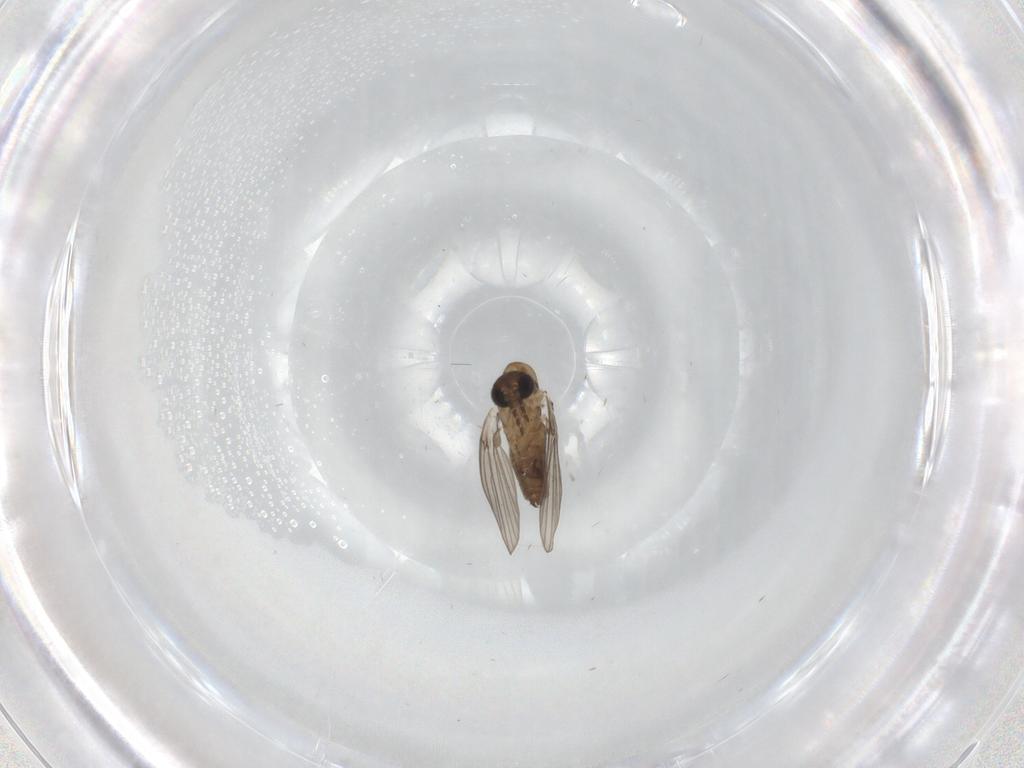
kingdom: Animalia
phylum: Arthropoda
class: Insecta
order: Diptera
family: Psychodidae
